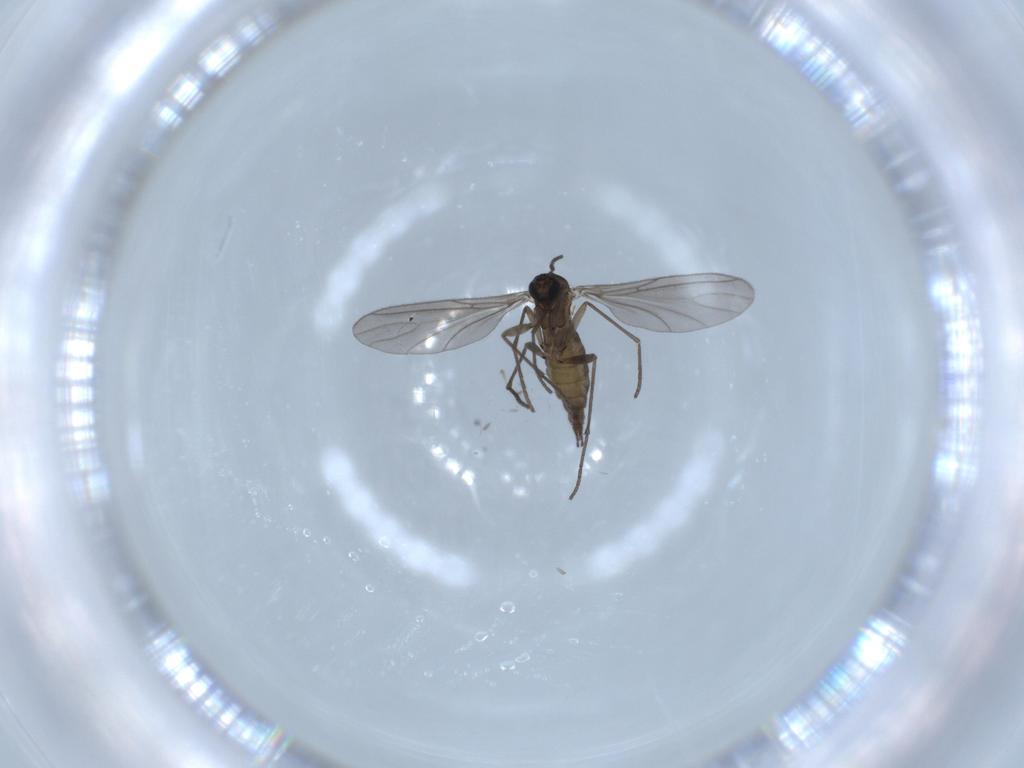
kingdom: Animalia
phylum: Arthropoda
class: Insecta
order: Diptera
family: Sciaridae
